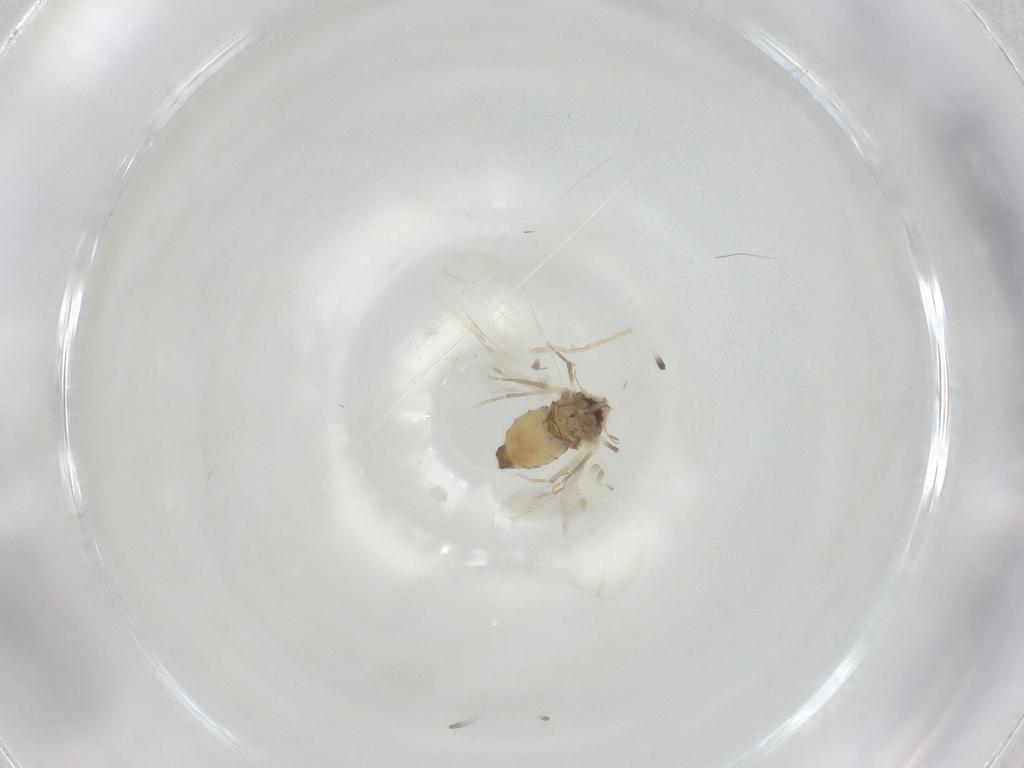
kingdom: Animalia
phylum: Arthropoda
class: Insecta
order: Hemiptera
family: Aleyrodidae
